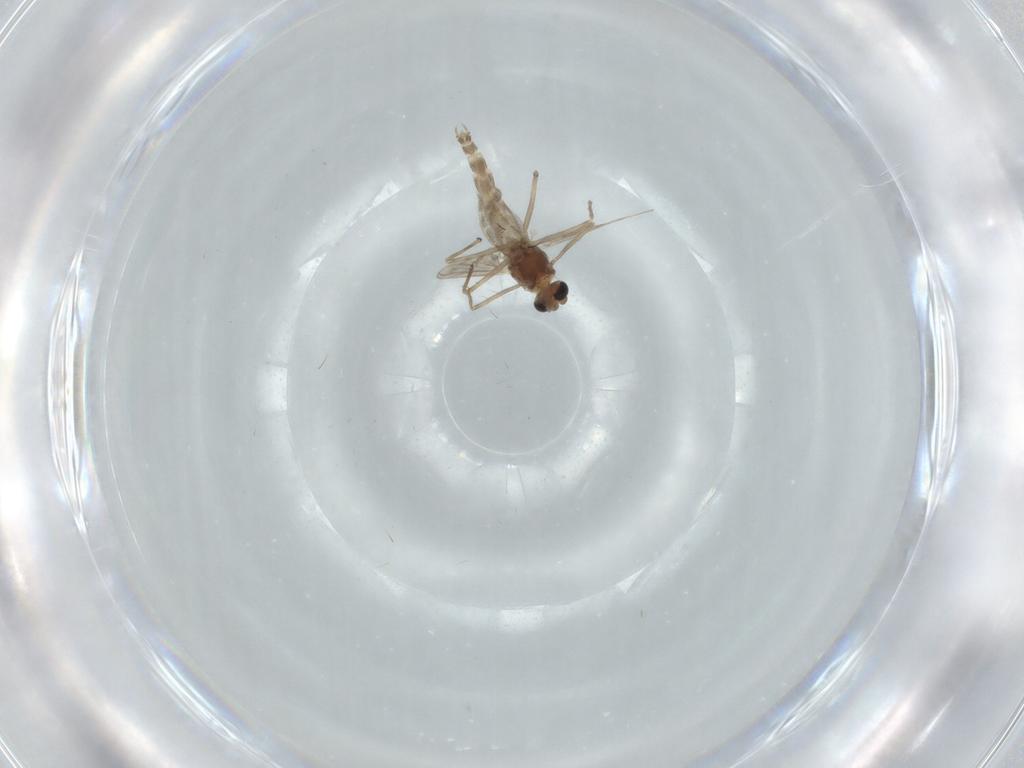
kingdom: Animalia
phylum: Arthropoda
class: Insecta
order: Diptera
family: Chironomidae
